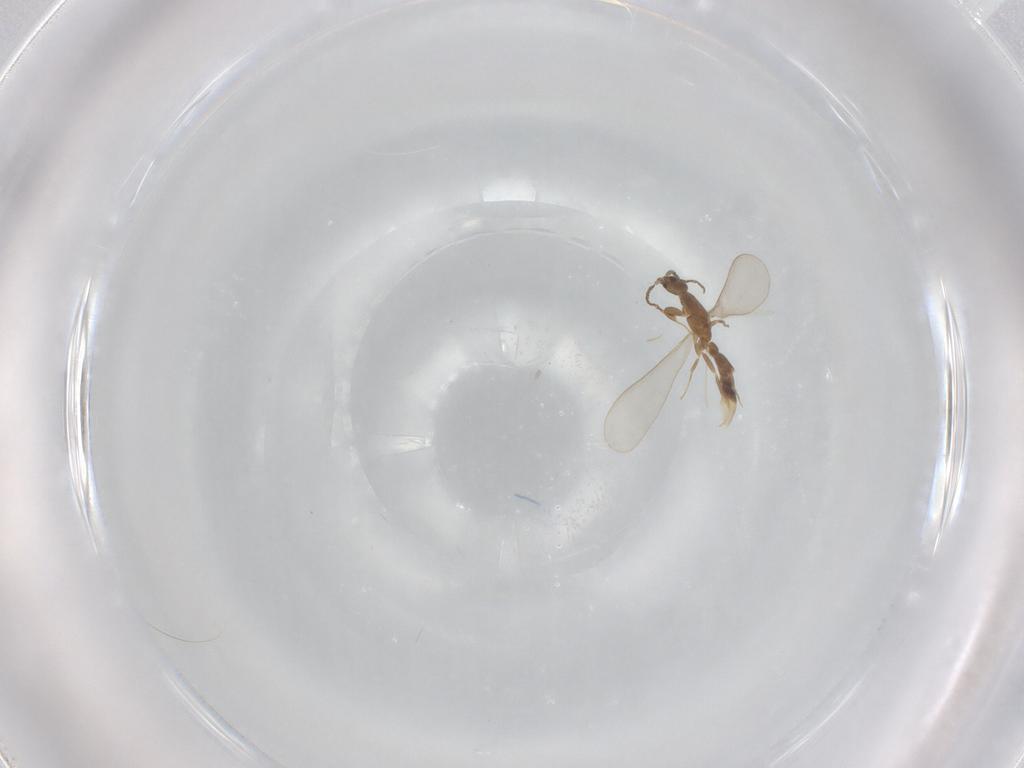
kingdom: Animalia
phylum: Arthropoda
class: Insecta
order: Hymenoptera
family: Formicidae
